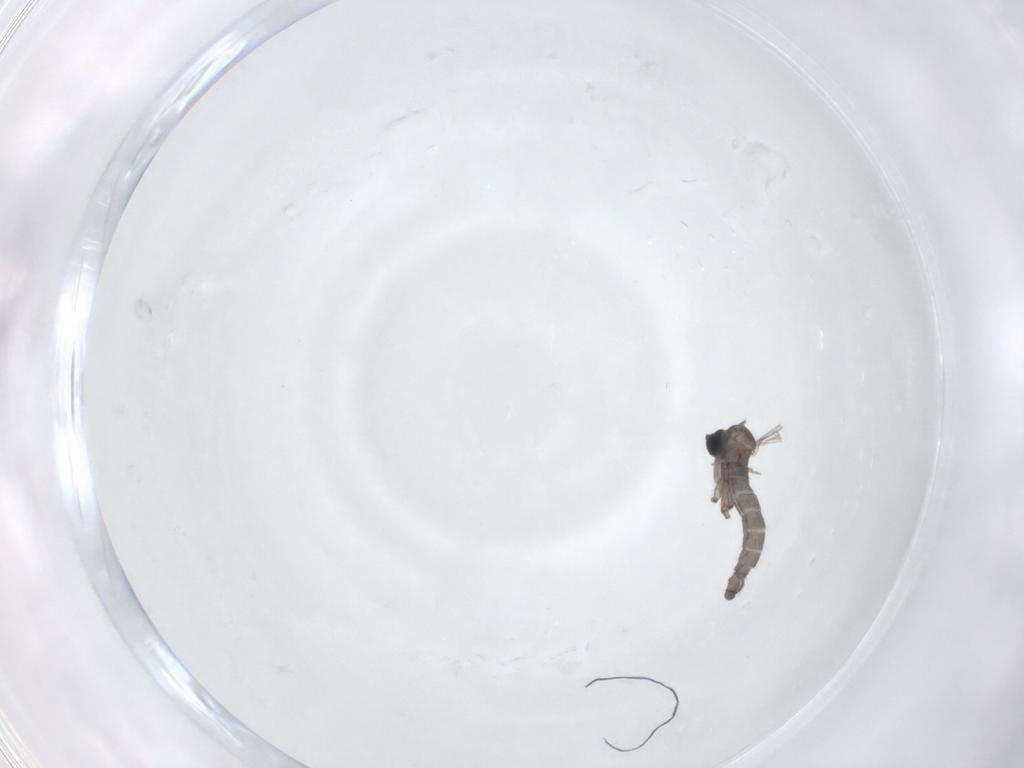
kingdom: Animalia
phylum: Arthropoda
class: Insecta
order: Diptera
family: Sciaridae
